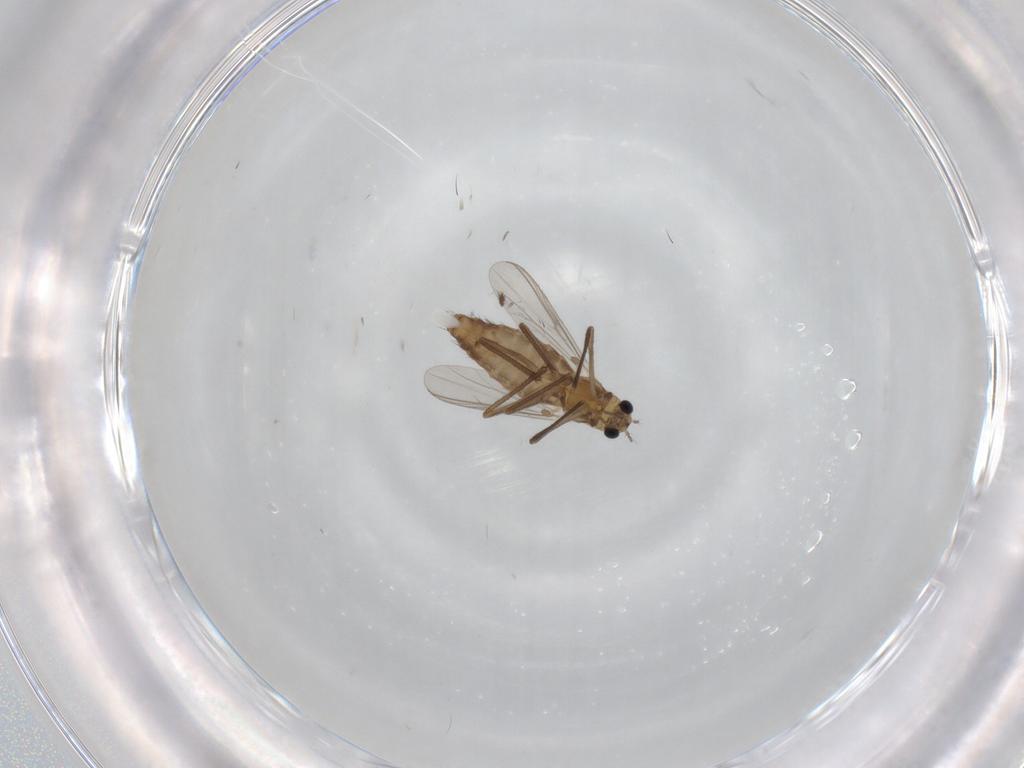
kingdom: Animalia
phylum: Arthropoda
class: Insecta
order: Diptera
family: Chironomidae
